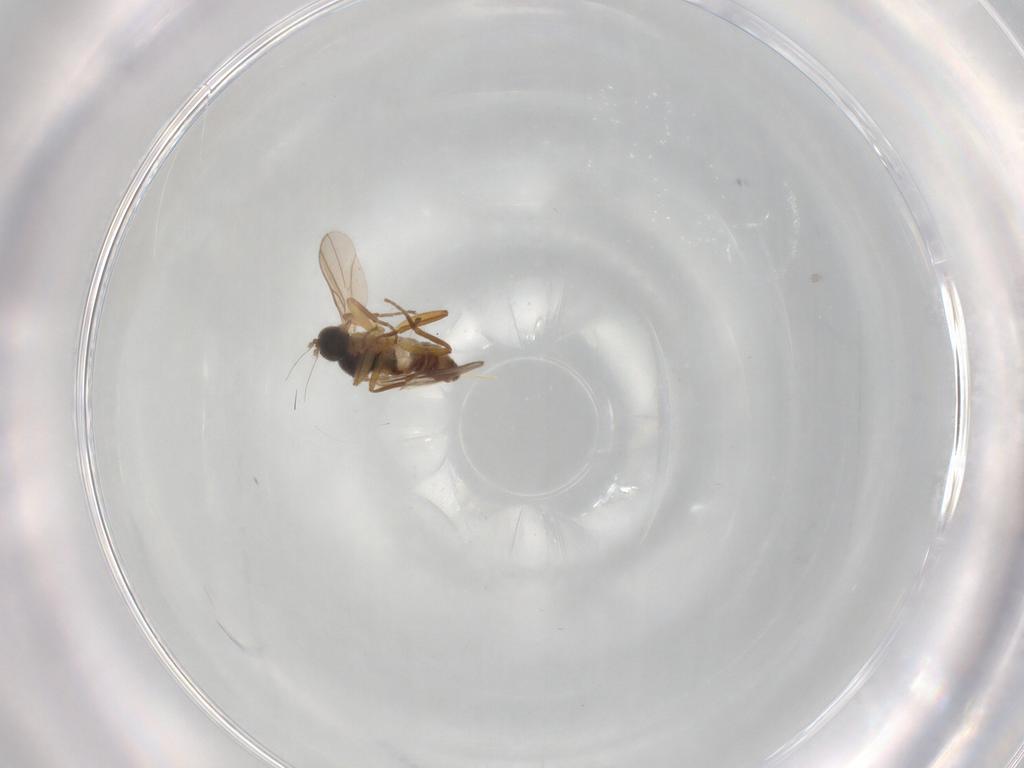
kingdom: Animalia
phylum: Arthropoda
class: Insecta
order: Diptera
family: Hybotidae
